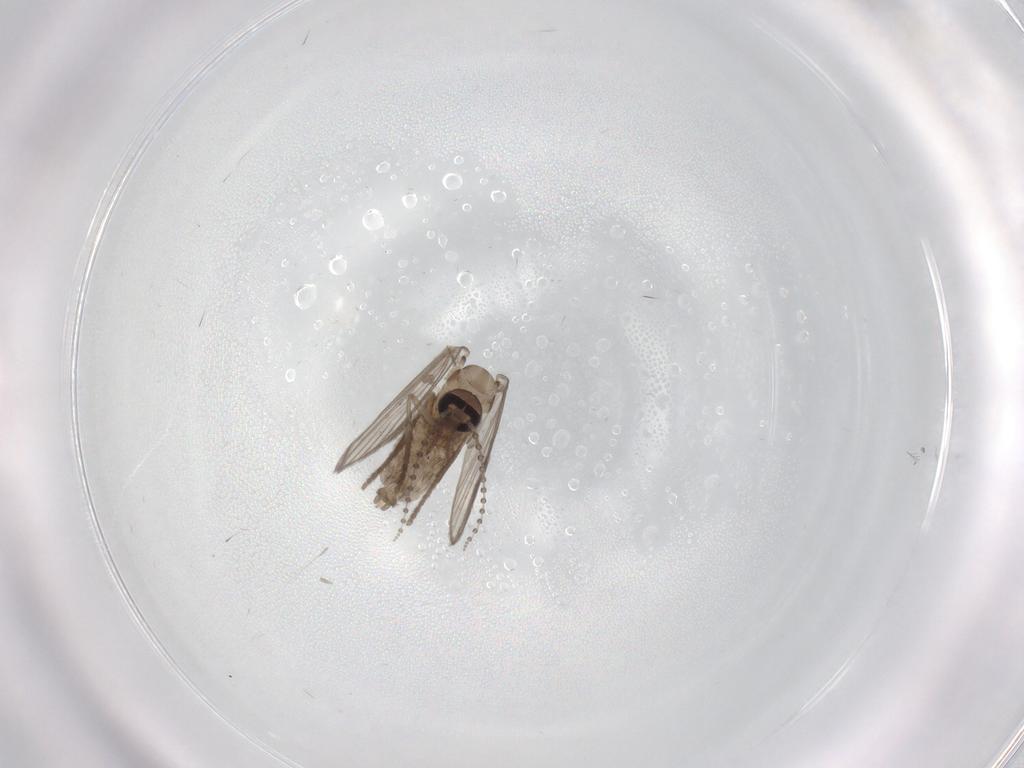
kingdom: Animalia
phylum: Arthropoda
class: Insecta
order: Diptera
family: Psychodidae
